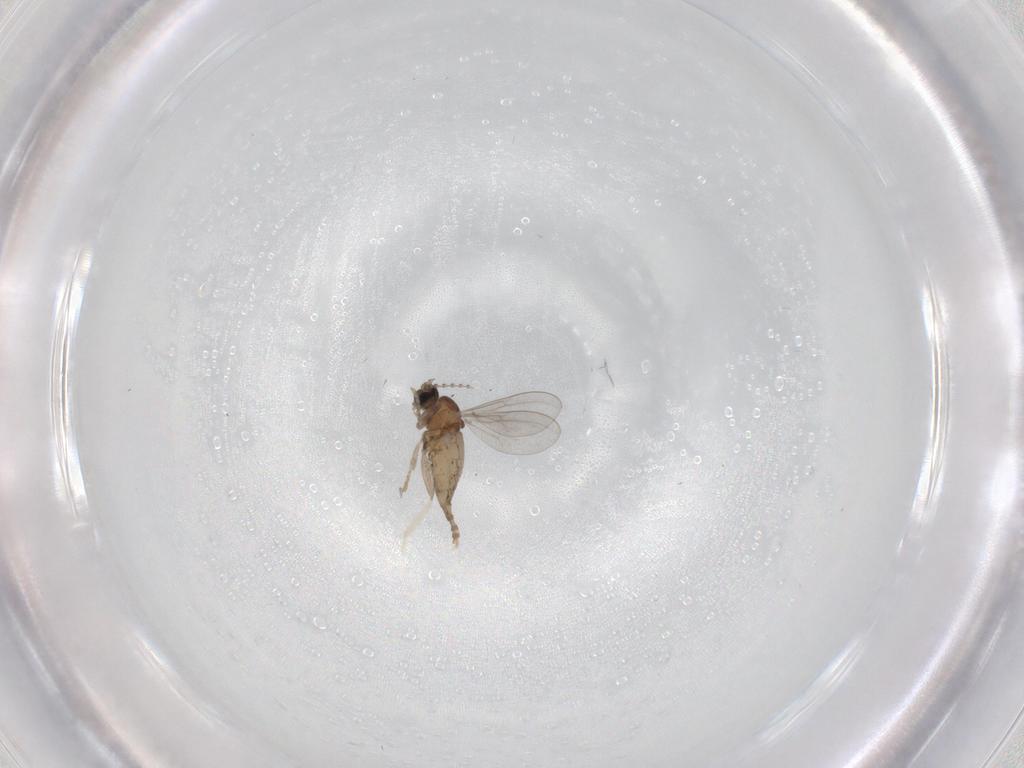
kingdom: Animalia
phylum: Arthropoda
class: Insecta
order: Diptera
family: Cecidomyiidae
